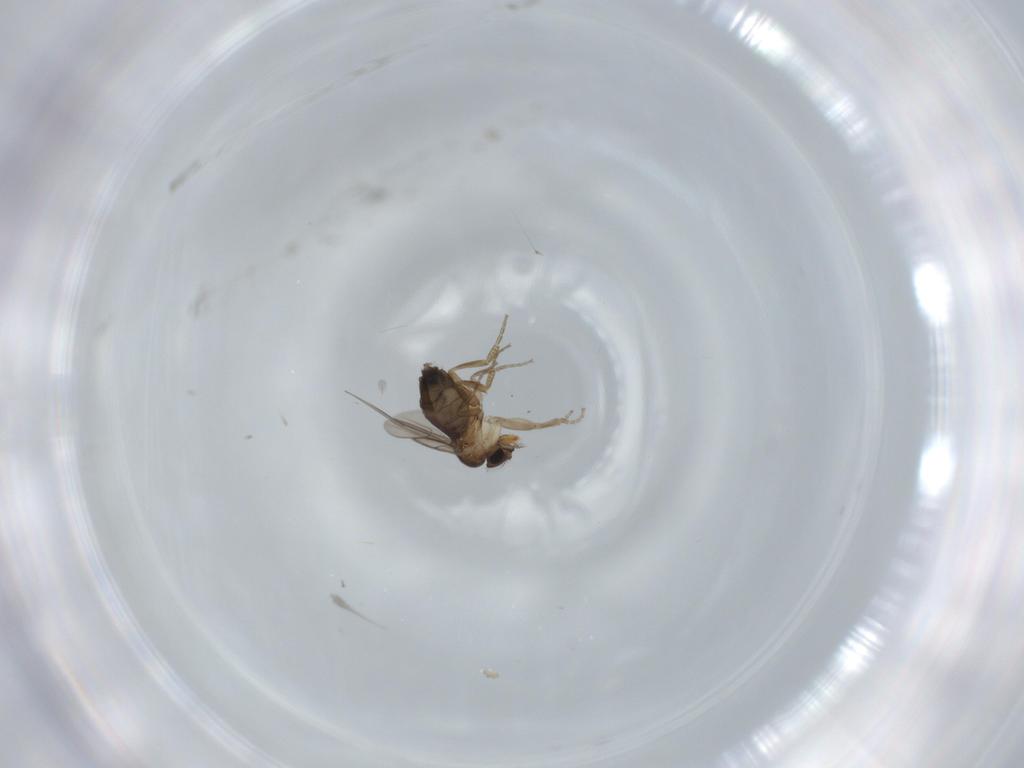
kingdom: Animalia
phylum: Arthropoda
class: Insecta
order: Diptera
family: Phoridae
